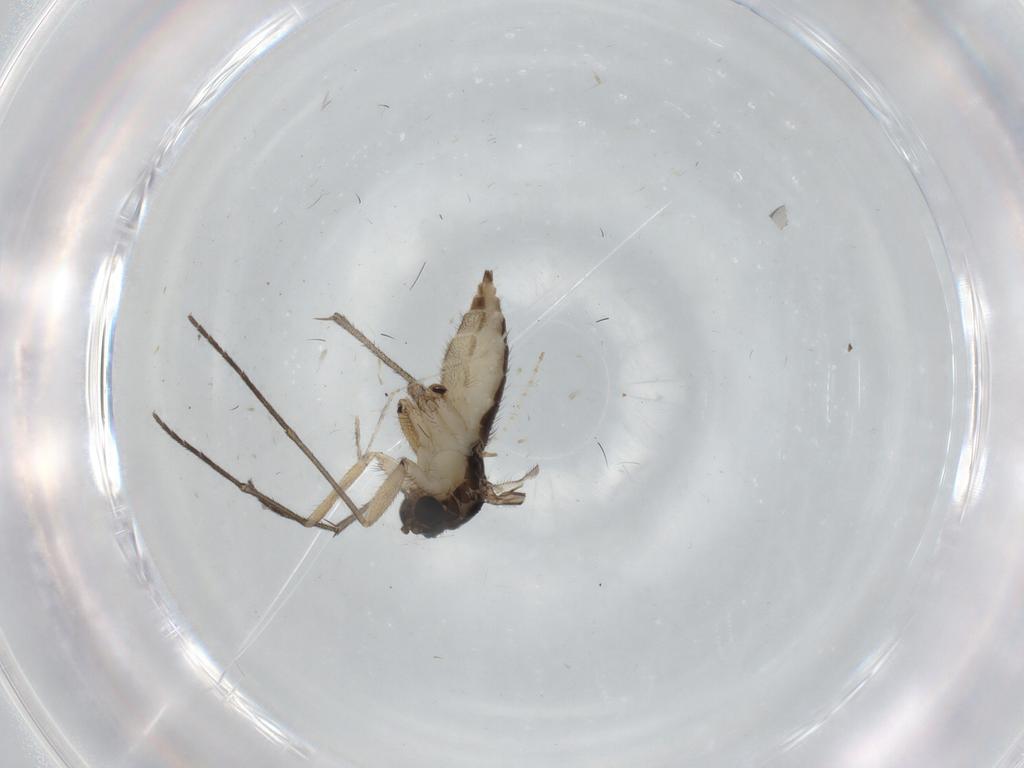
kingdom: Animalia
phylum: Arthropoda
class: Insecta
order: Diptera
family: Sciaridae
